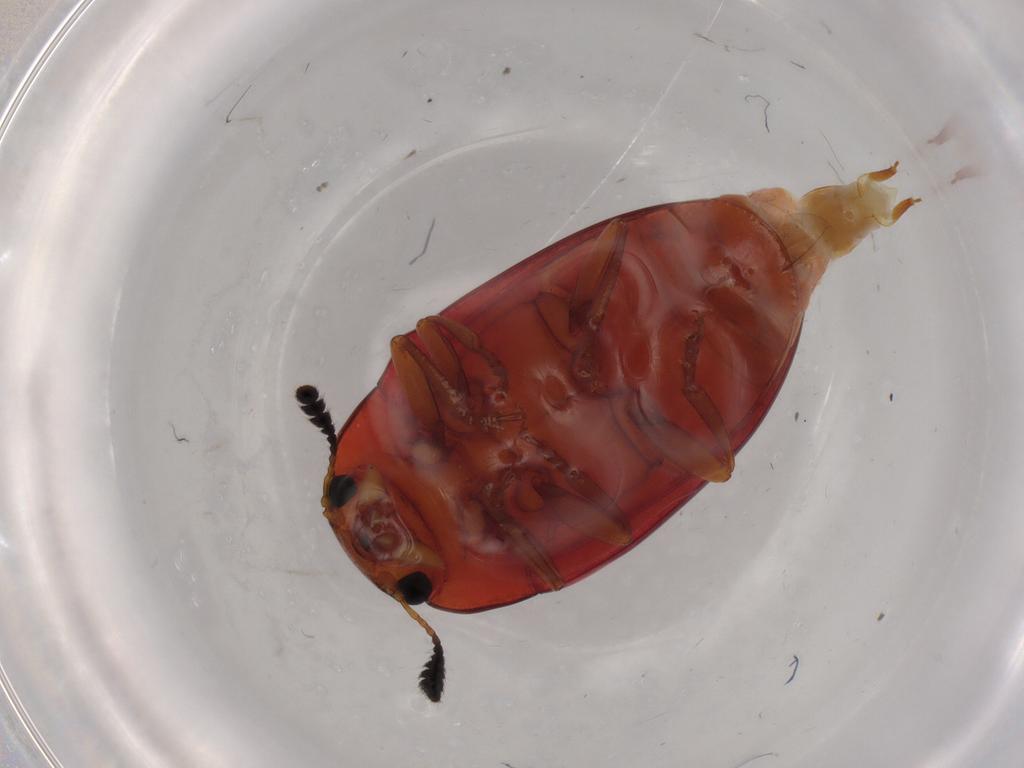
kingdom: Animalia
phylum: Arthropoda
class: Insecta
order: Coleoptera
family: Erotylidae
